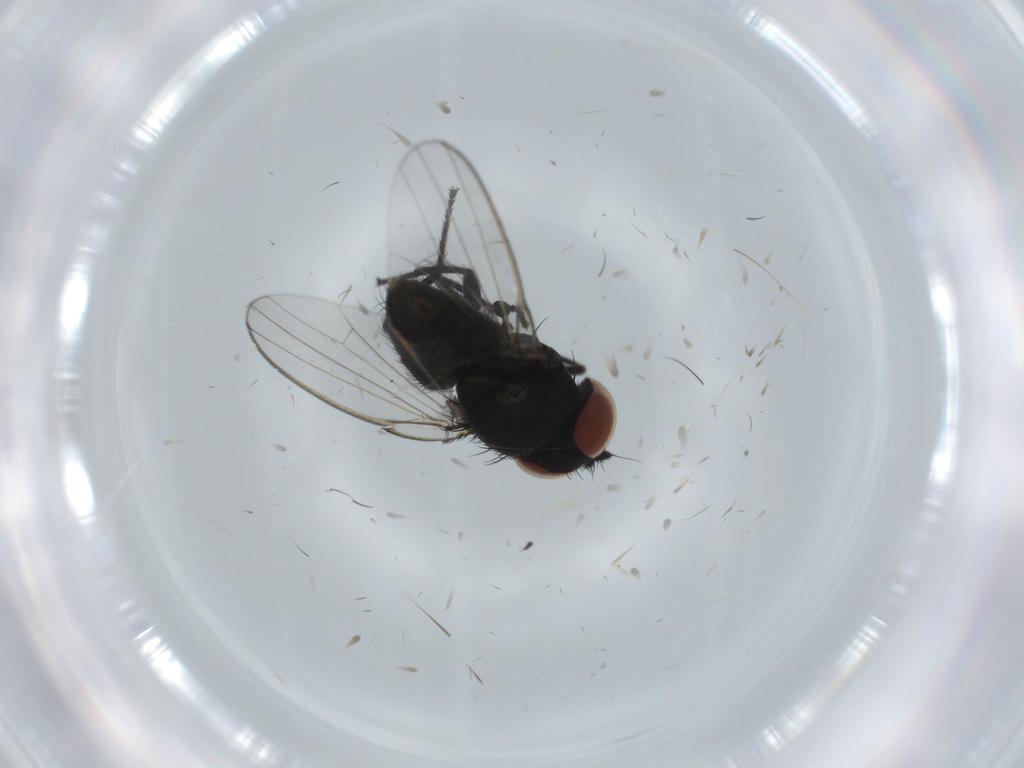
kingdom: Animalia
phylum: Arthropoda
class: Insecta
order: Diptera
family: Milichiidae
